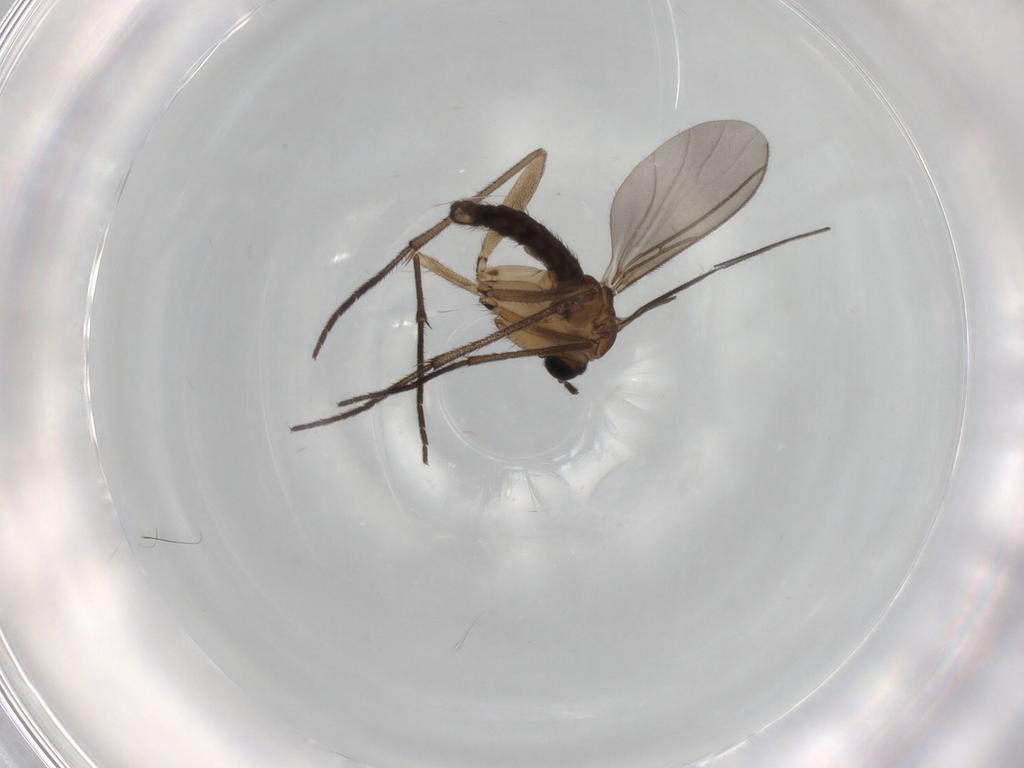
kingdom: Animalia
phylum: Arthropoda
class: Insecta
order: Diptera
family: Sciaridae
